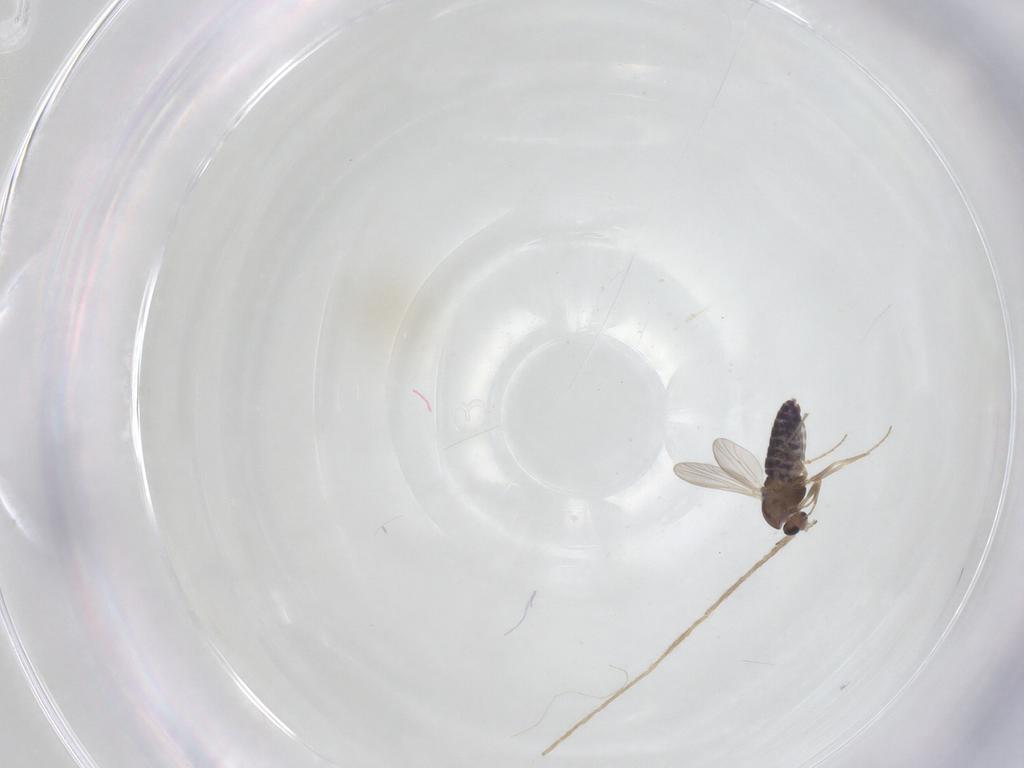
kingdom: Animalia
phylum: Arthropoda
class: Insecta
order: Diptera
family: Chironomidae
